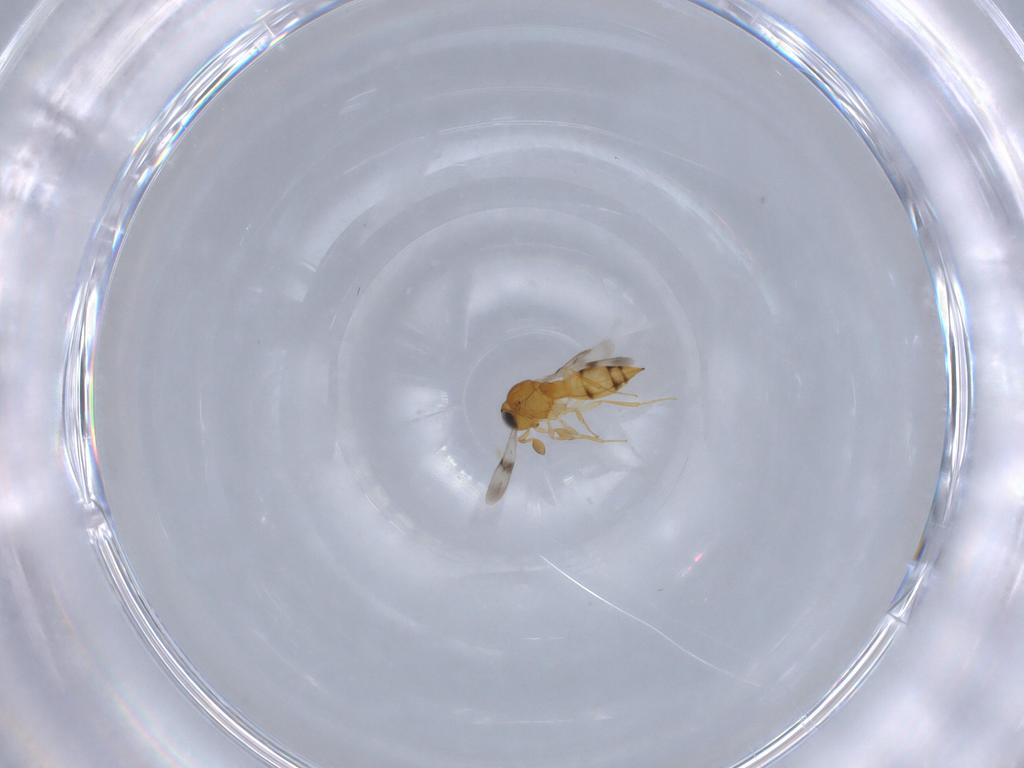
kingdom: Animalia
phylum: Arthropoda
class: Insecta
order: Hymenoptera
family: Scelionidae
